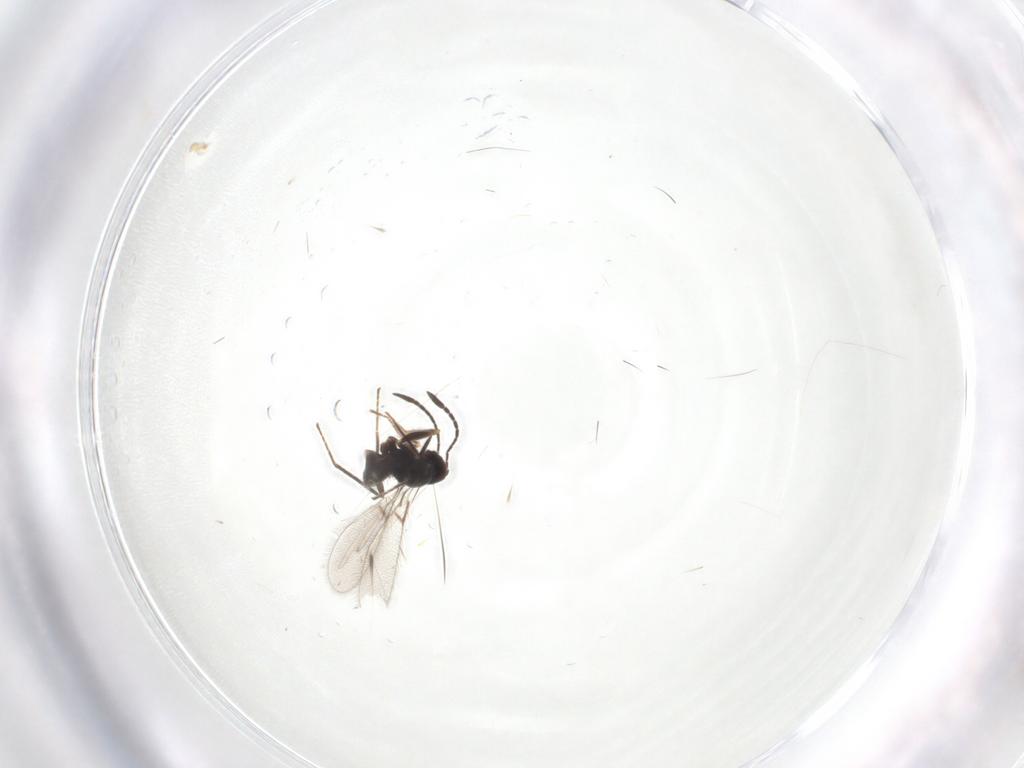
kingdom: Animalia
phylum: Arthropoda
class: Insecta
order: Hymenoptera
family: Mymaridae
